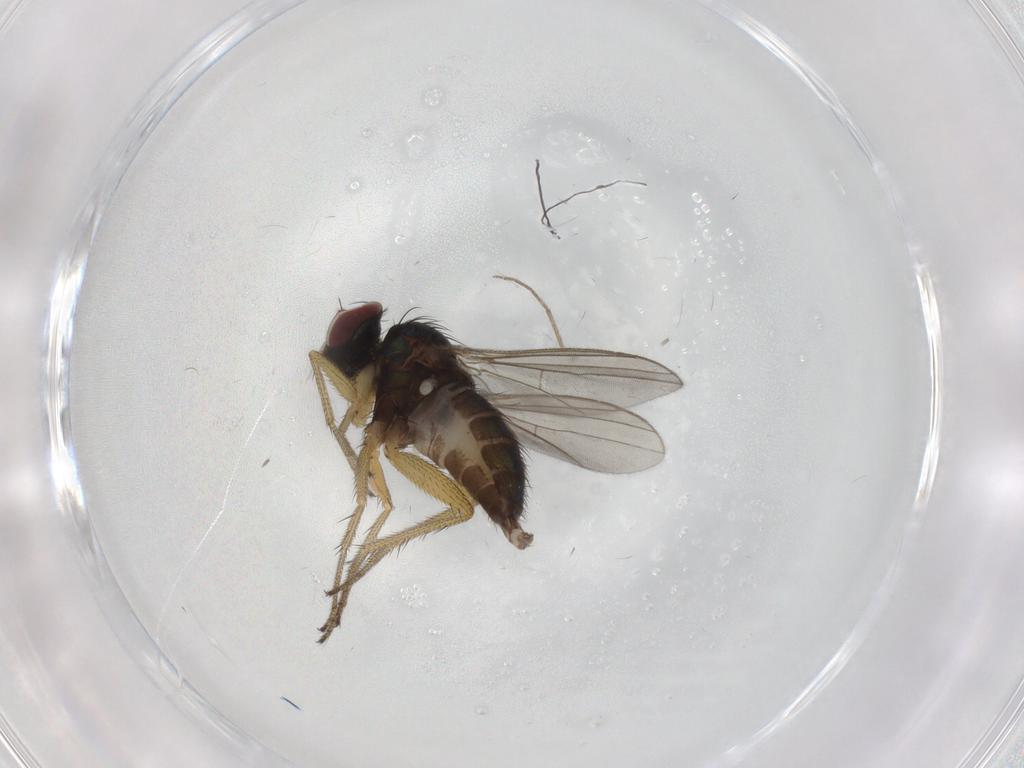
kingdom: Animalia
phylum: Arthropoda
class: Insecta
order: Diptera
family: Dolichopodidae
